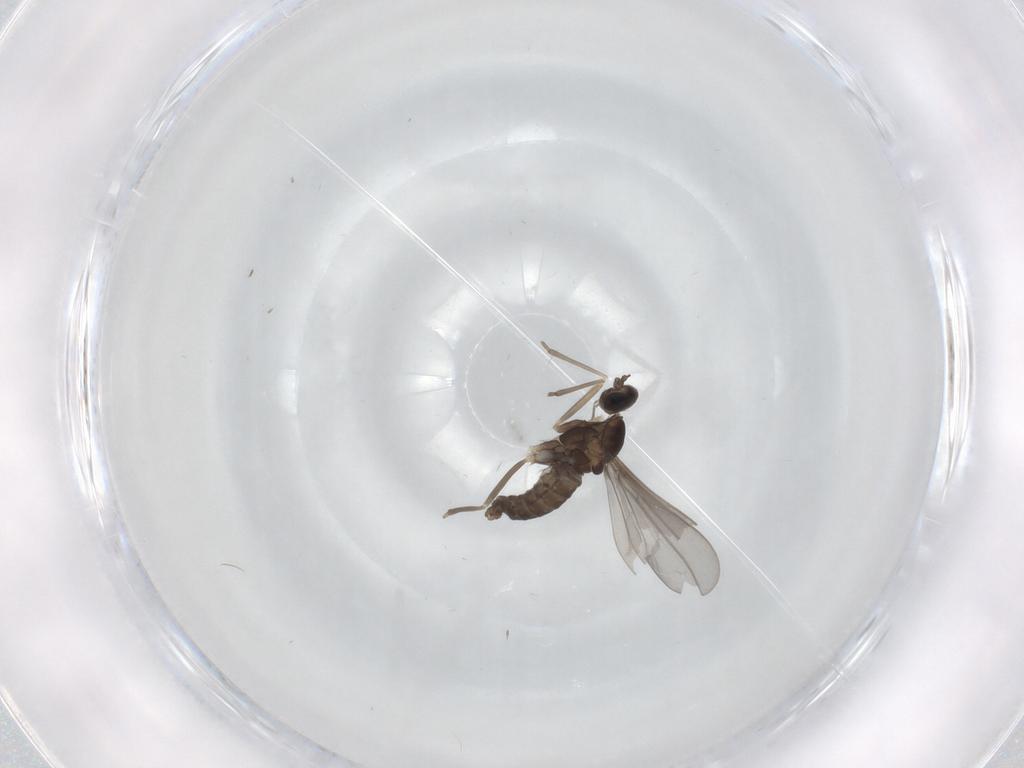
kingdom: Animalia
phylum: Arthropoda
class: Insecta
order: Diptera
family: Cecidomyiidae
